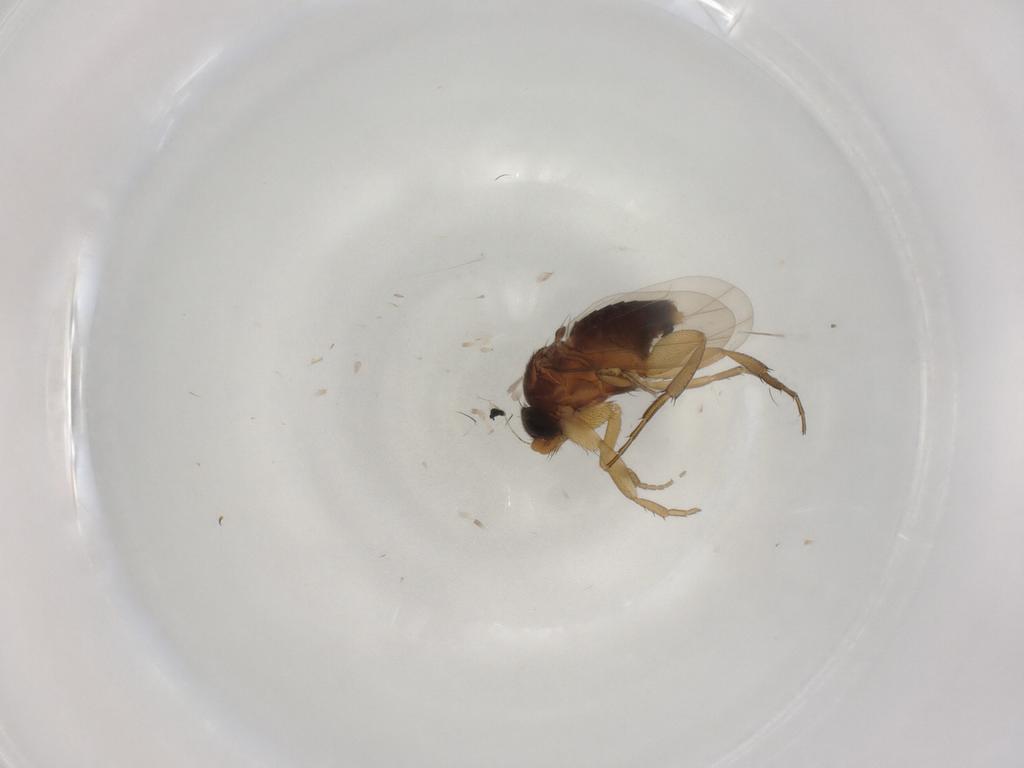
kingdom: Animalia
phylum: Arthropoda
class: Insecta
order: Diptera
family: Phoridae
